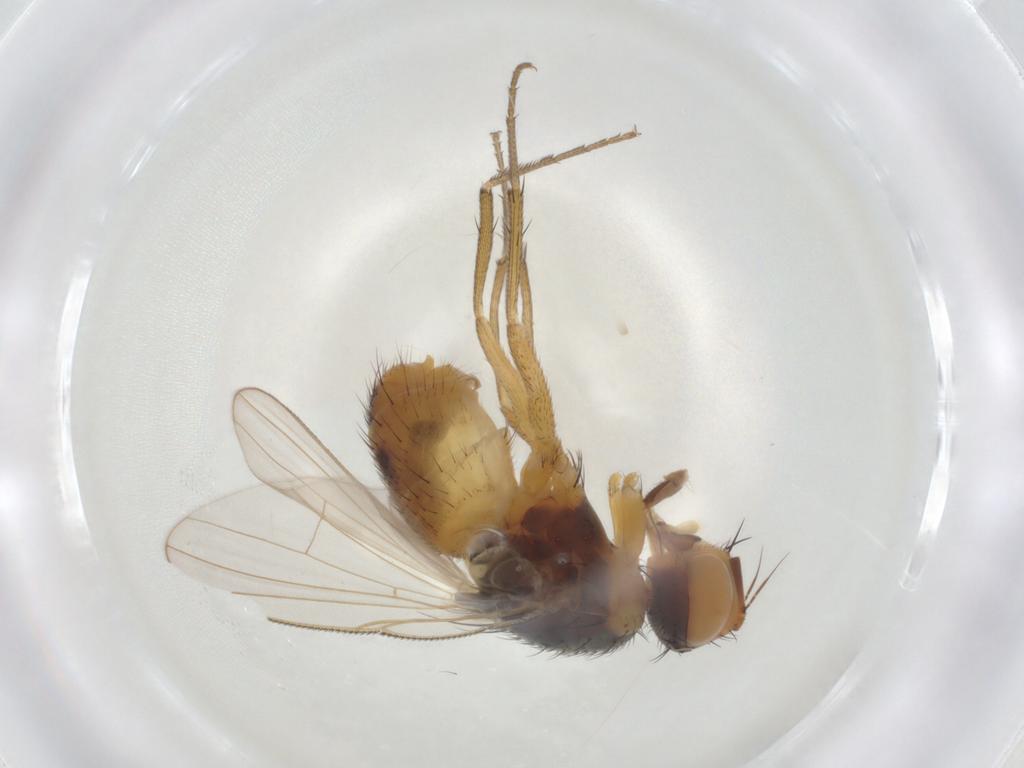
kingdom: Animalia
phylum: Arthropoda
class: Insecta
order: Diptera
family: Muscidae
